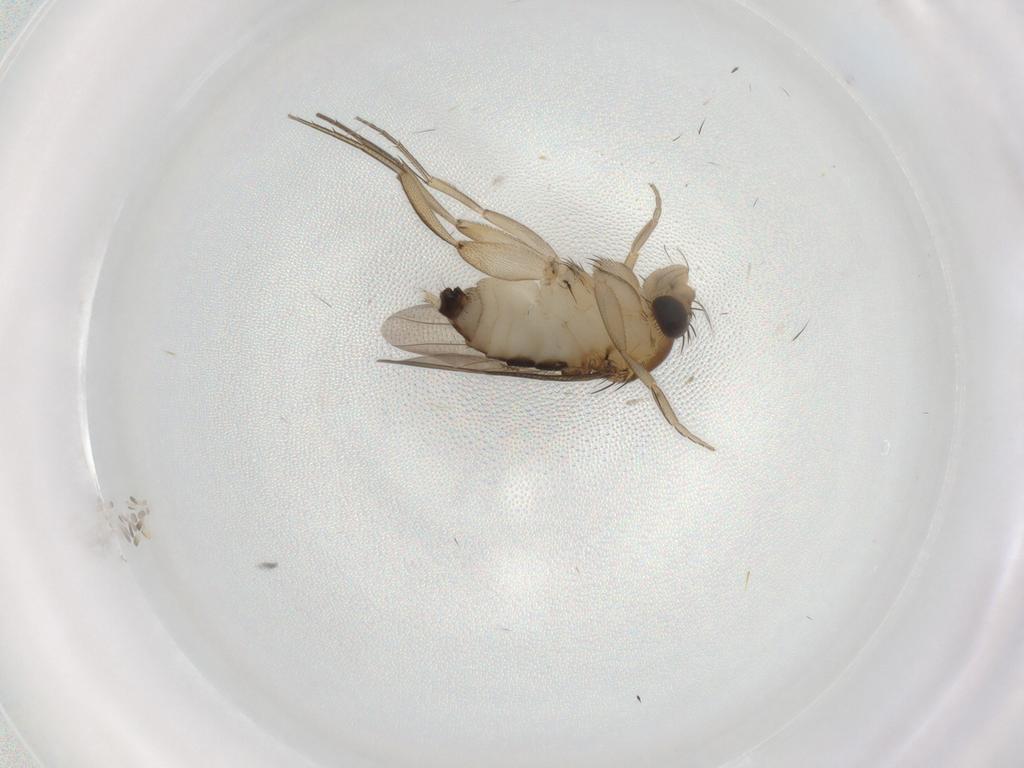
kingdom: Animalia
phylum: Arthropoda
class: Insecta
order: Diptera
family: Phoridae
